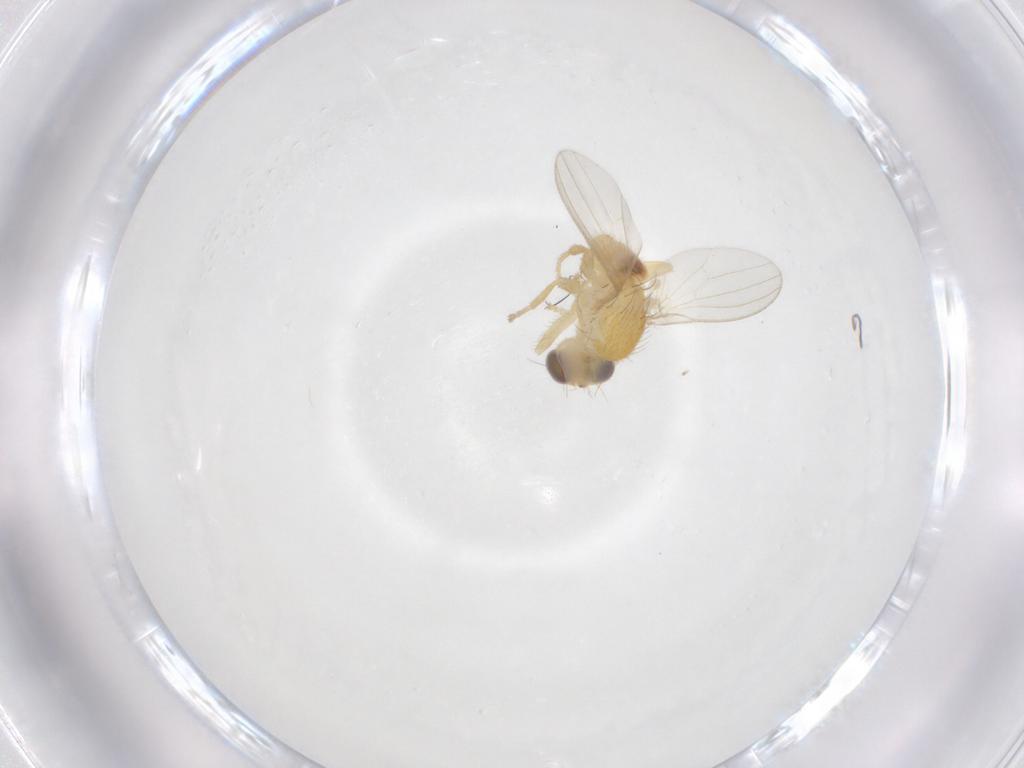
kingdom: Animalia
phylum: Arthropoda
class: Insecta
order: Diptera
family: Chyromyidae
